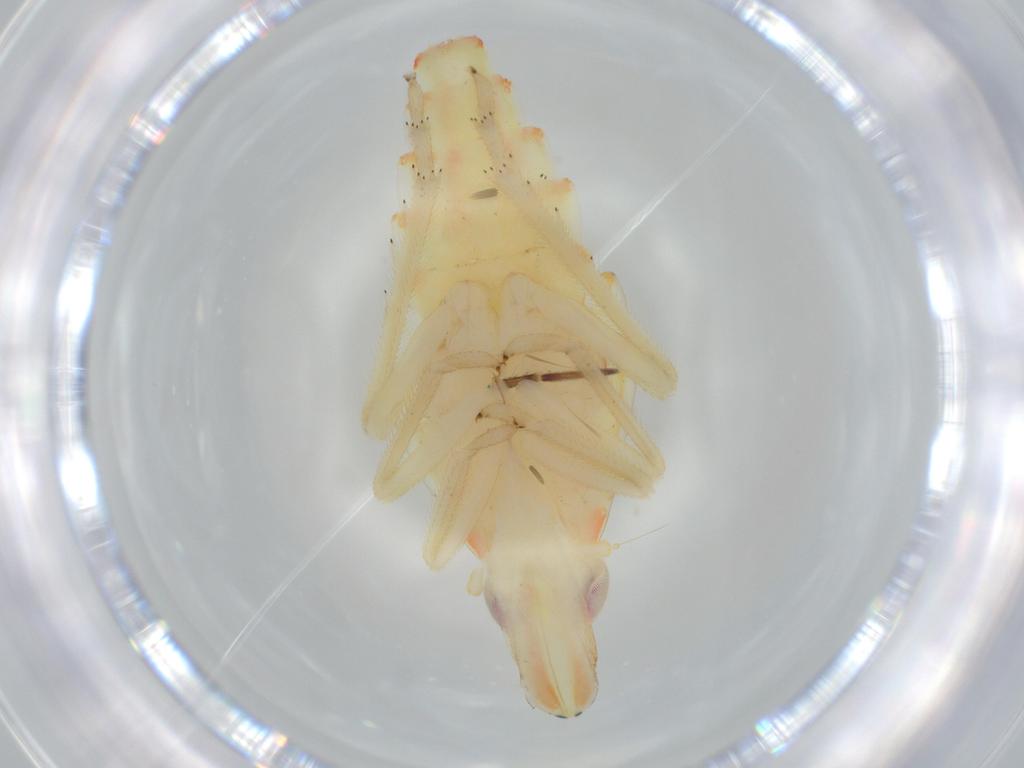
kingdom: Animalia
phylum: Arthropoda
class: Insecta
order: Hemiptera
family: Tropiduchidae
